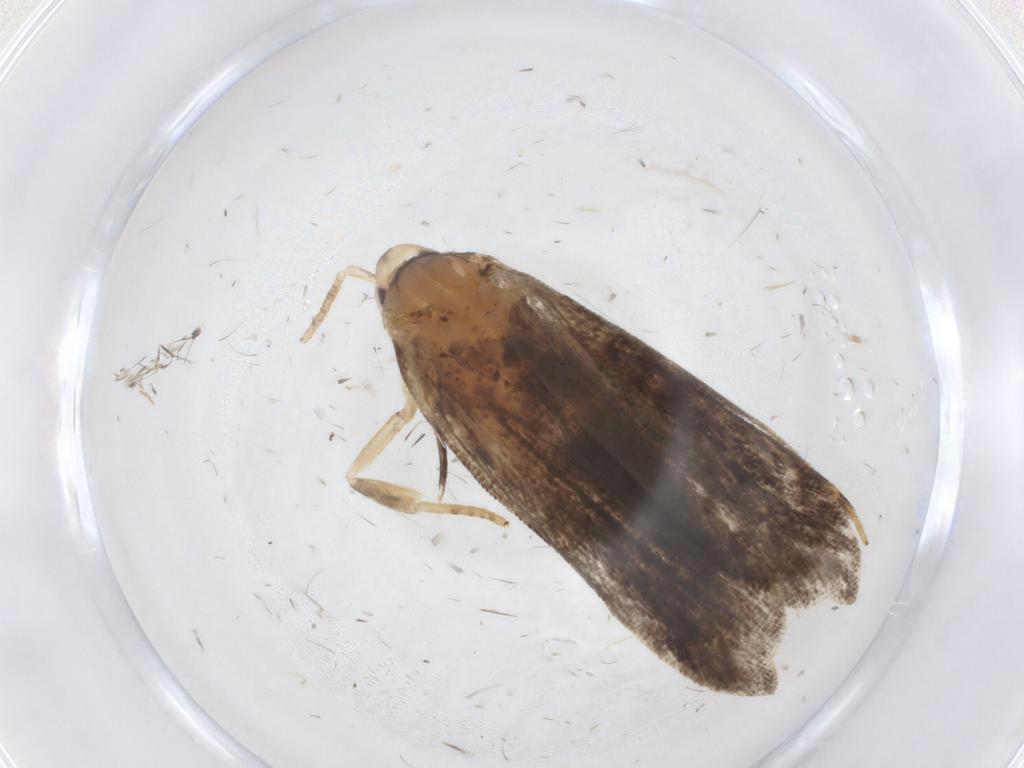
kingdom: Animalia
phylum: Arthropoda
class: Insecta
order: Lepidoptera
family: Gelechiidae
